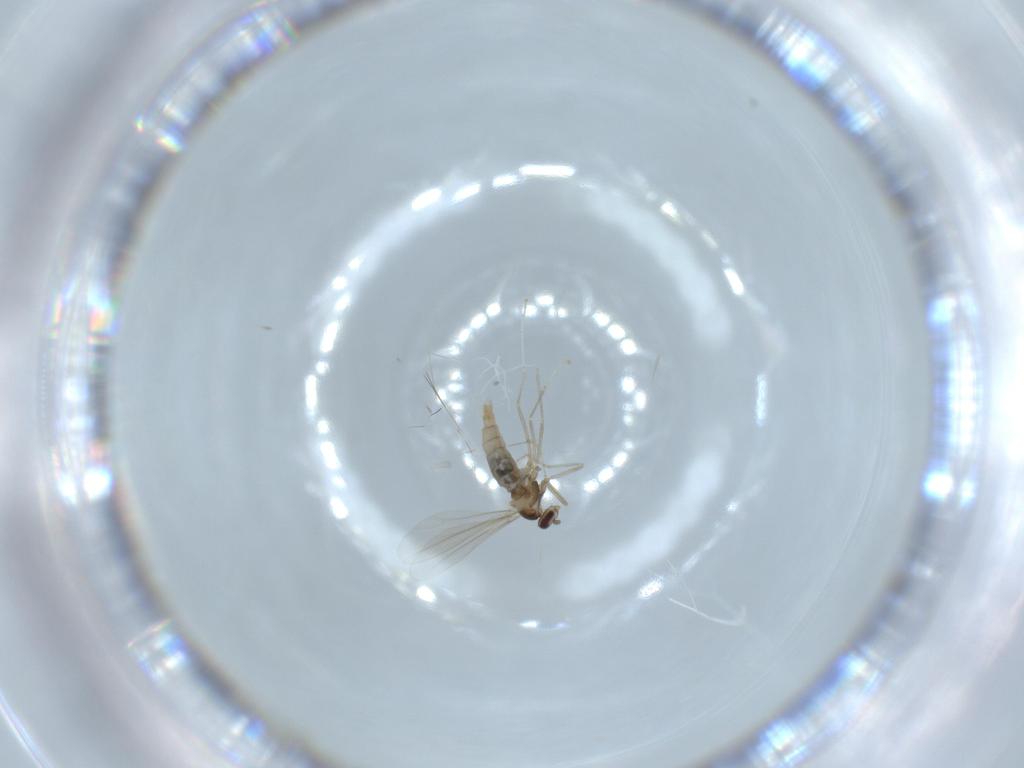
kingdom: Animalia
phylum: Arthropoda
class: Insecta
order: Diptera
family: Cecidomyiidae
